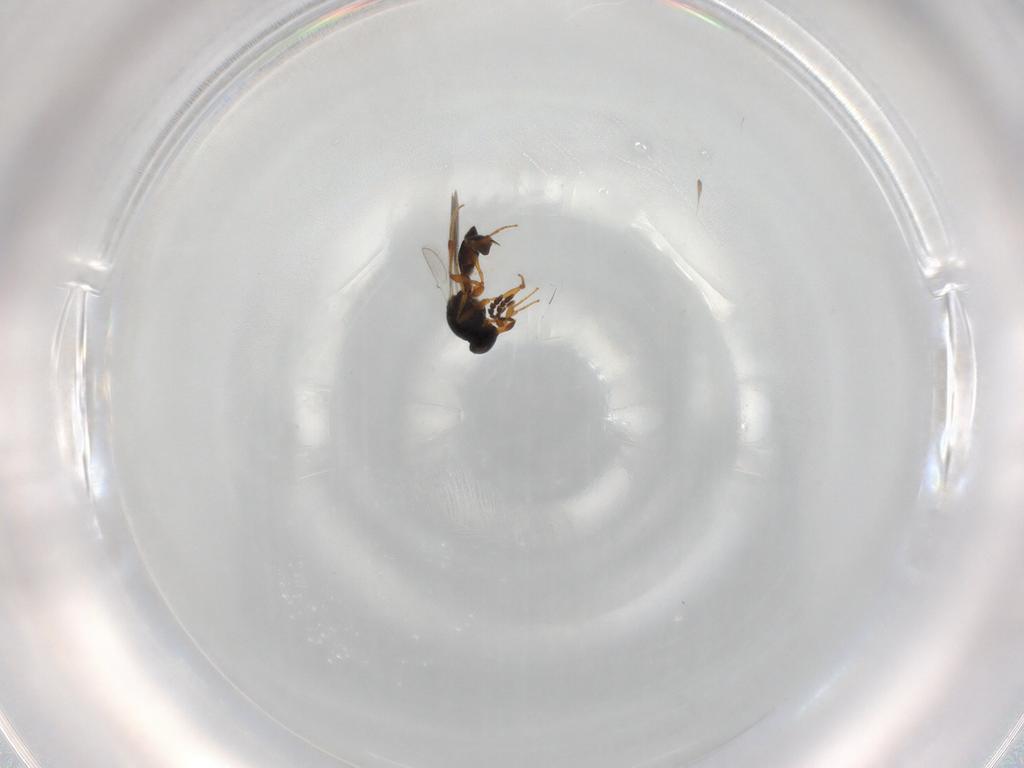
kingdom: Animalia
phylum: Arthropoda
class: Insecta
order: Hymenoptera
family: Platygastridae
